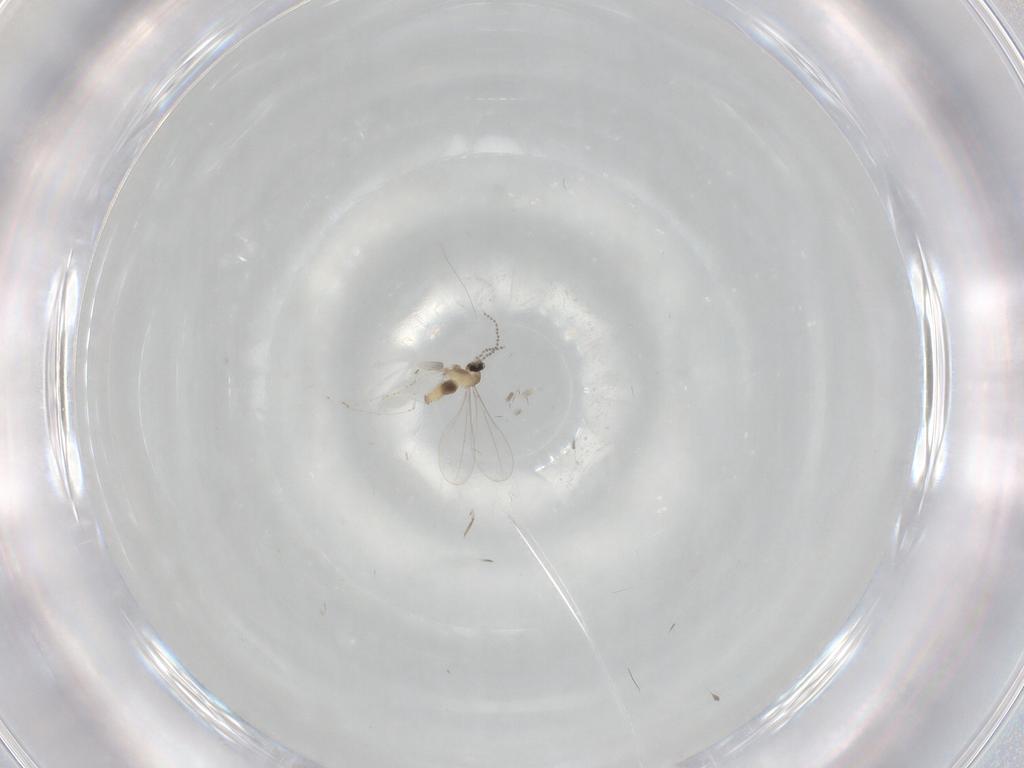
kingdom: Animalia
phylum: Arthropoda
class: Insecta
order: Diptera
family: Cecidomyiidae
